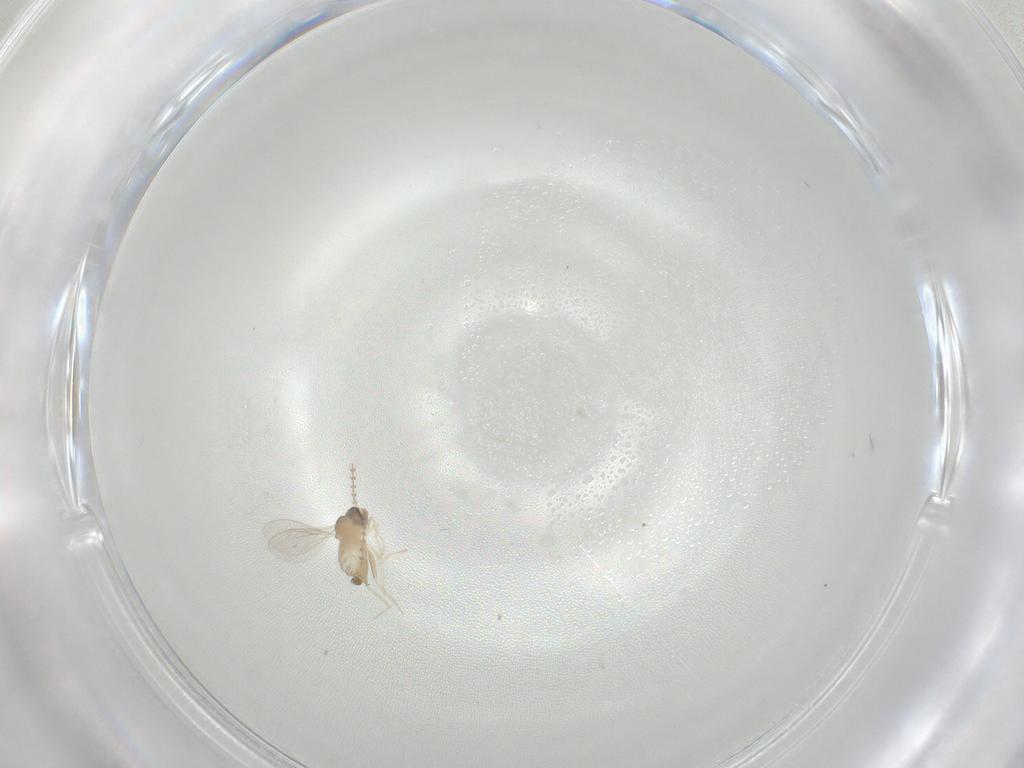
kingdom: Animalia
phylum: Arthropoda
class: Insecta
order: Diptera
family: Cecidomyiidae
